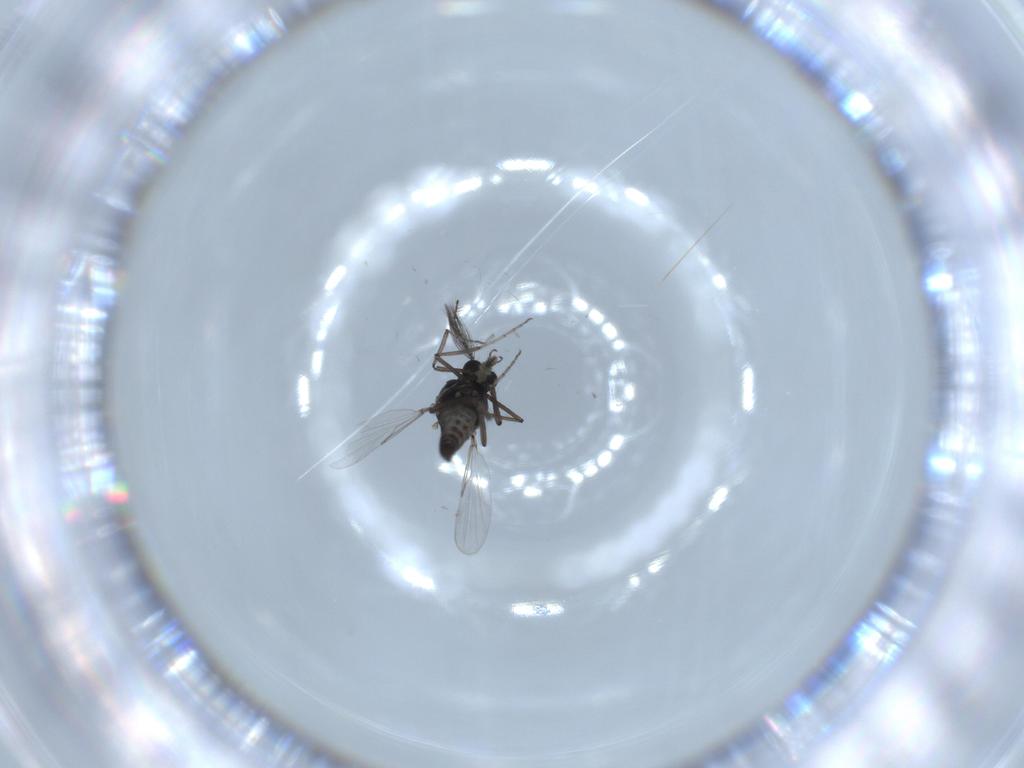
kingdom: Animalia
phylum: Arthropoda
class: Insecta
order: Diptera
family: Ceratopogonidae
